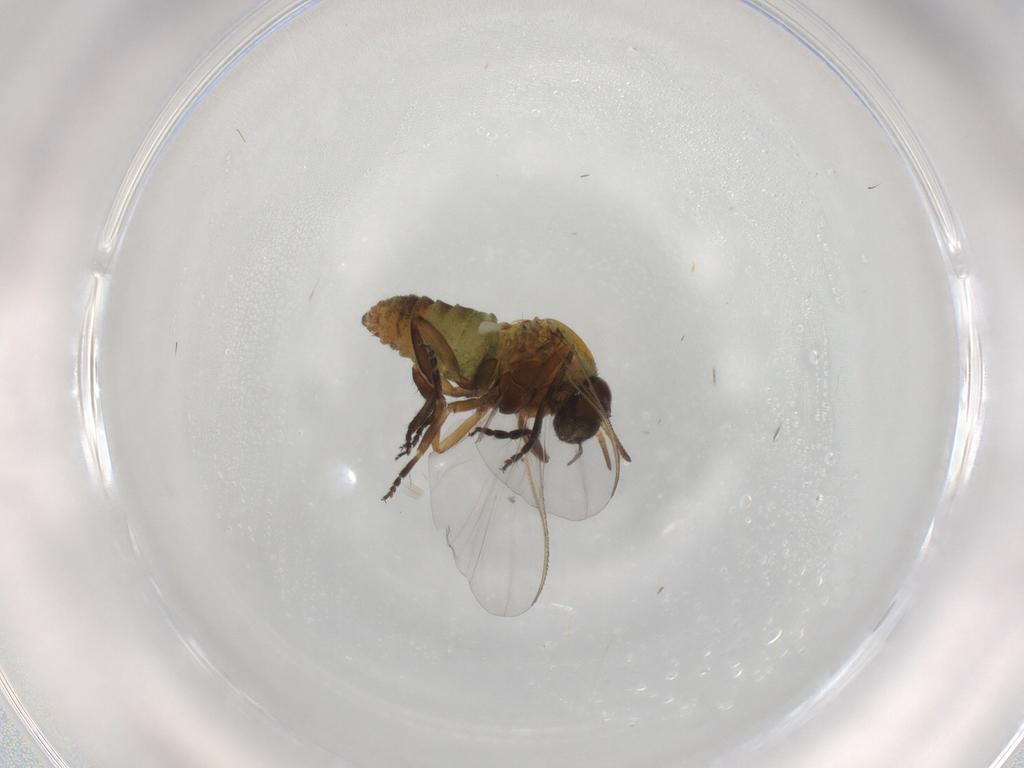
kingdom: Animalia
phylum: Arthropoda
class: Insecta
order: Diptera
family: Simuliidae
